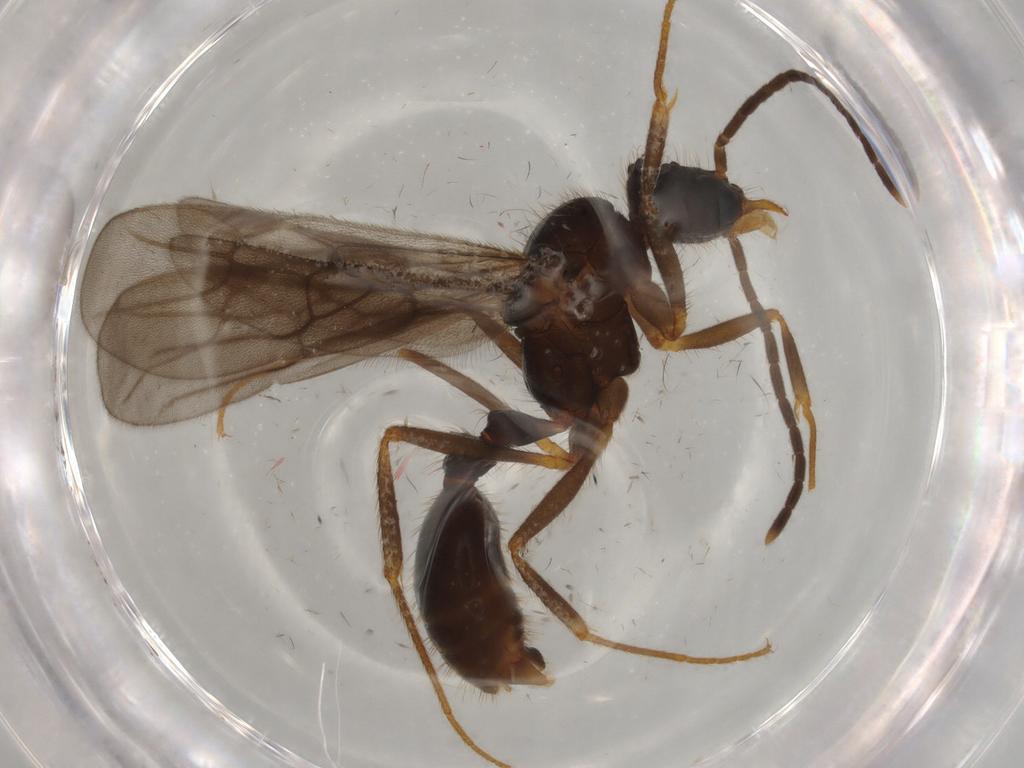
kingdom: Animalia
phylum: Arthropoda
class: Insecta
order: Hymenoptera
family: Formicidae
